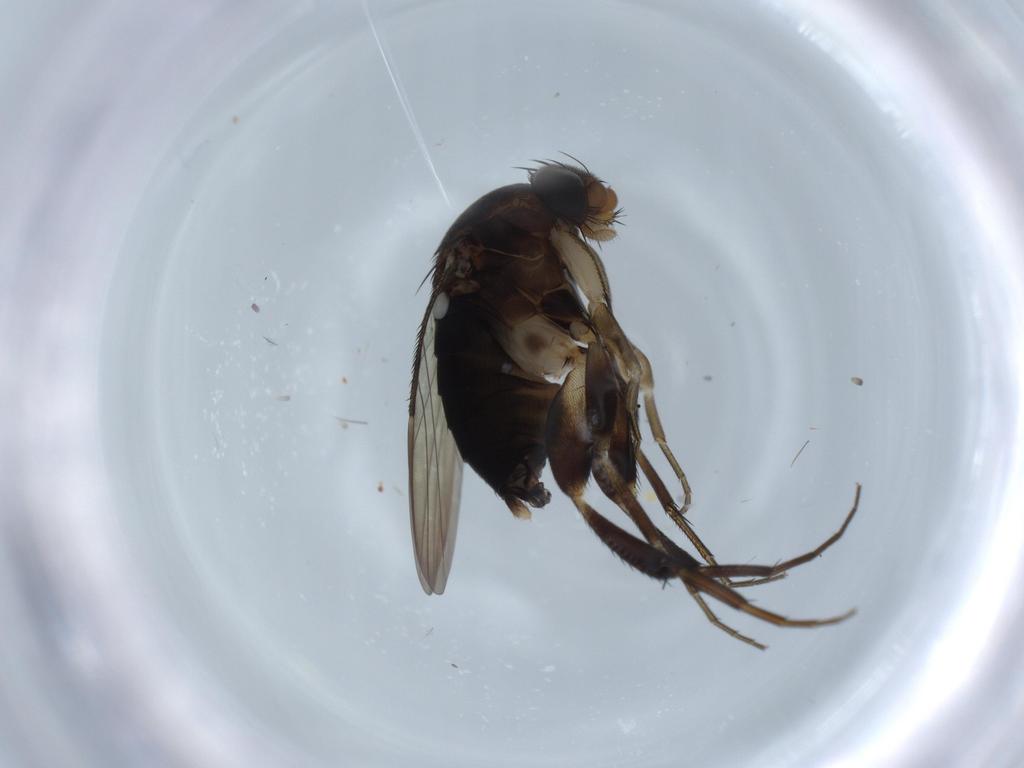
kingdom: Animalia
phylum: Arthropoda
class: Insecta
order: Diptera
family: Phoridae
